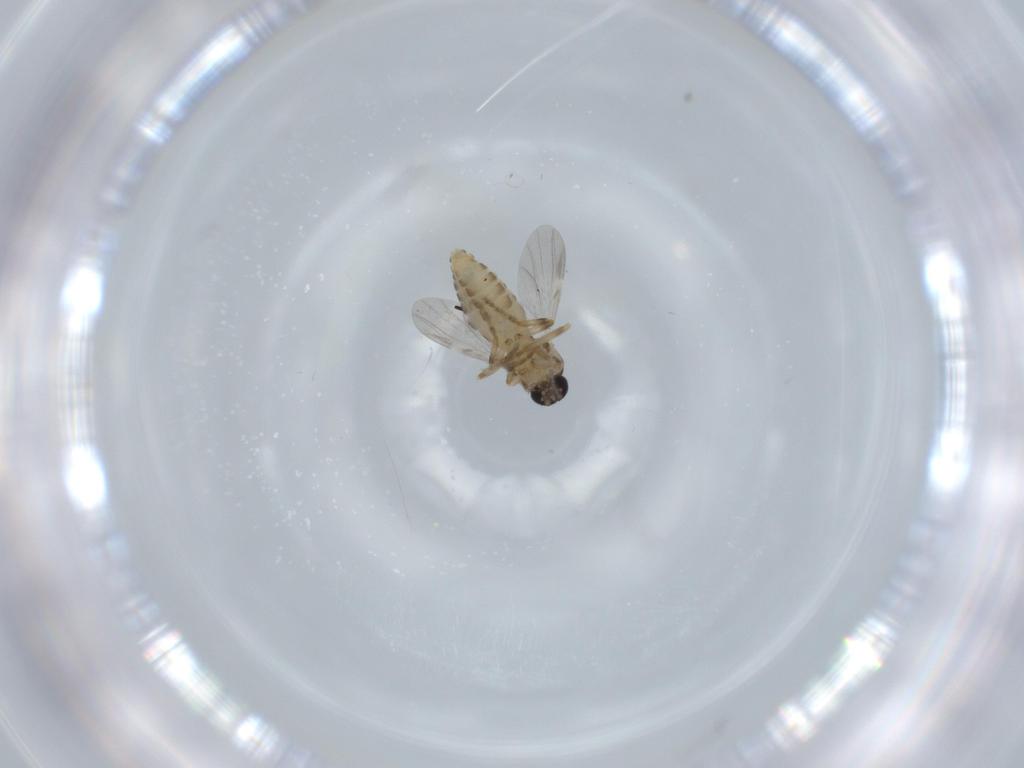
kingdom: Animalia
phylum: Arthropoda
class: Insecta
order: Diptera
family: Ceratopogonidae
